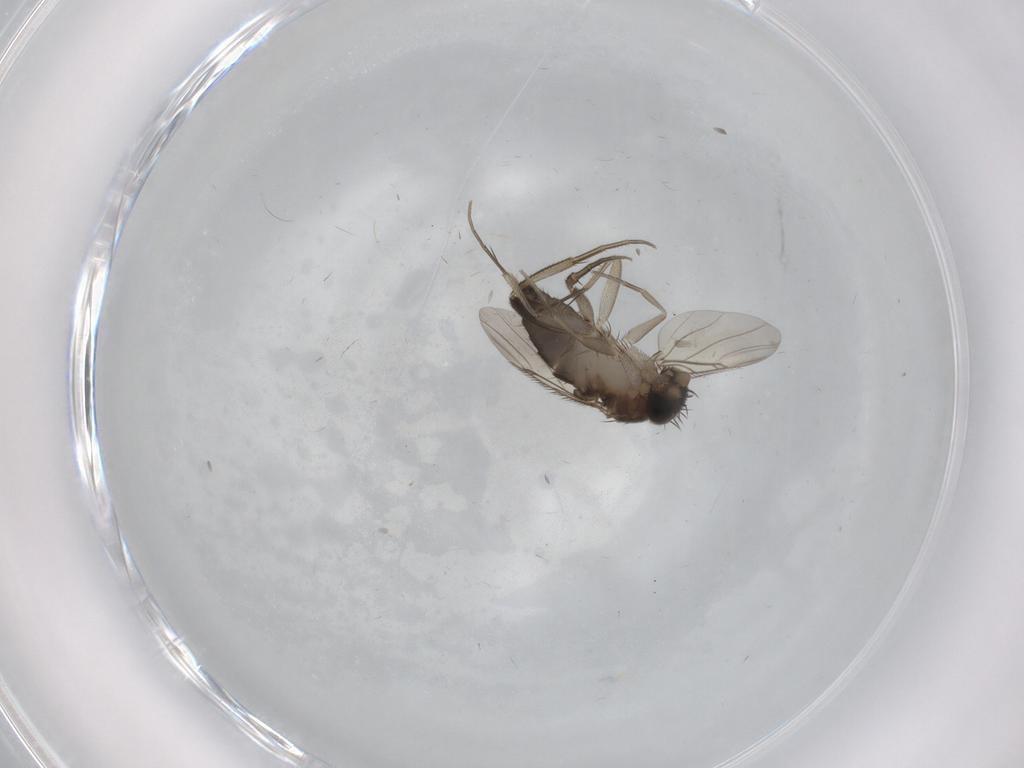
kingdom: Animalia
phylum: Arthropoda
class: Insecta
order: Diptera
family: Phoridae
